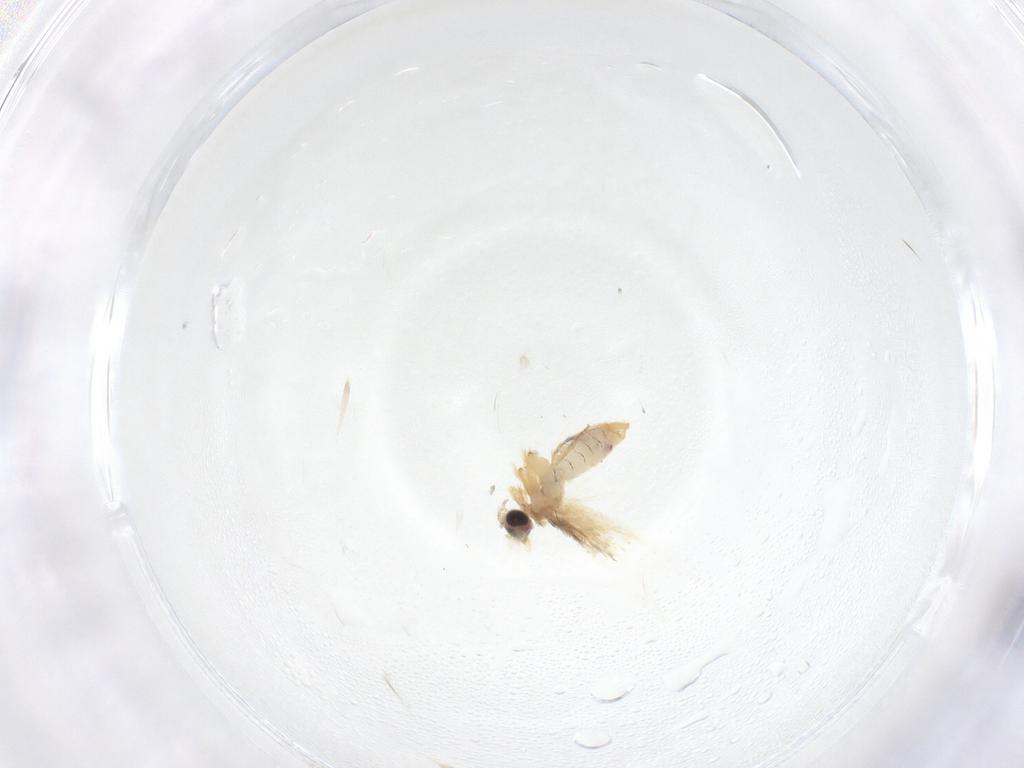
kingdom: Animalia
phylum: Arthropoda
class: Insecta
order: Lepidoptera
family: Nepticulidae
